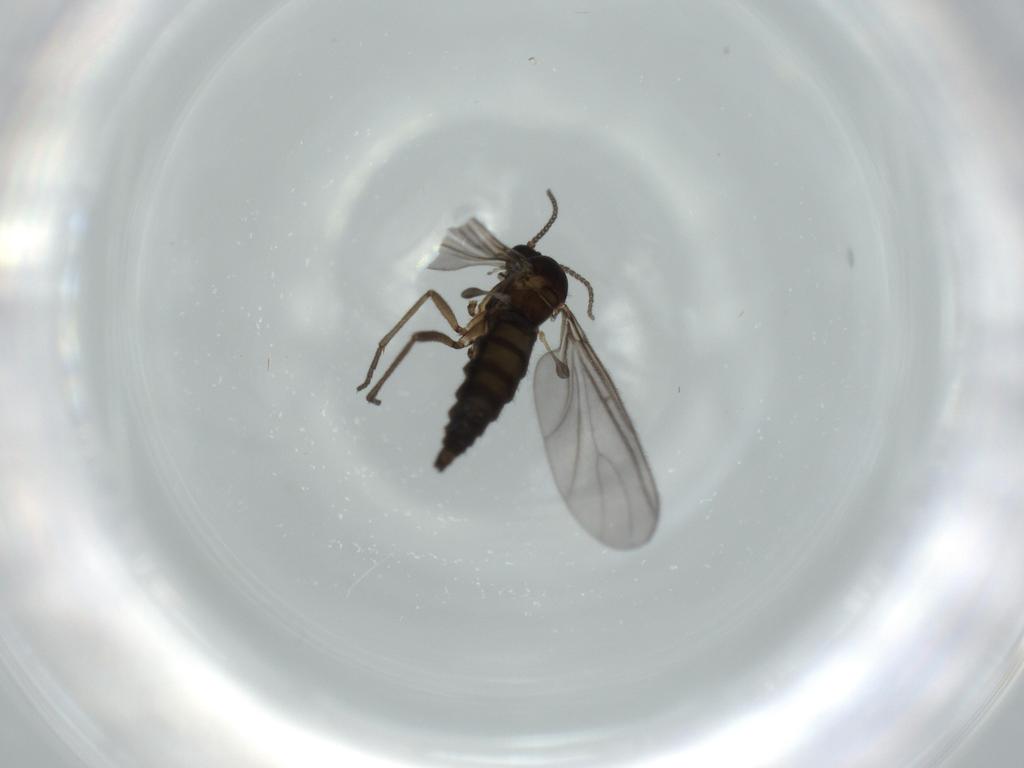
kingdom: Animalia
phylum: Arthropoda
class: Insecta
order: Diptera
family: Sciaridae
